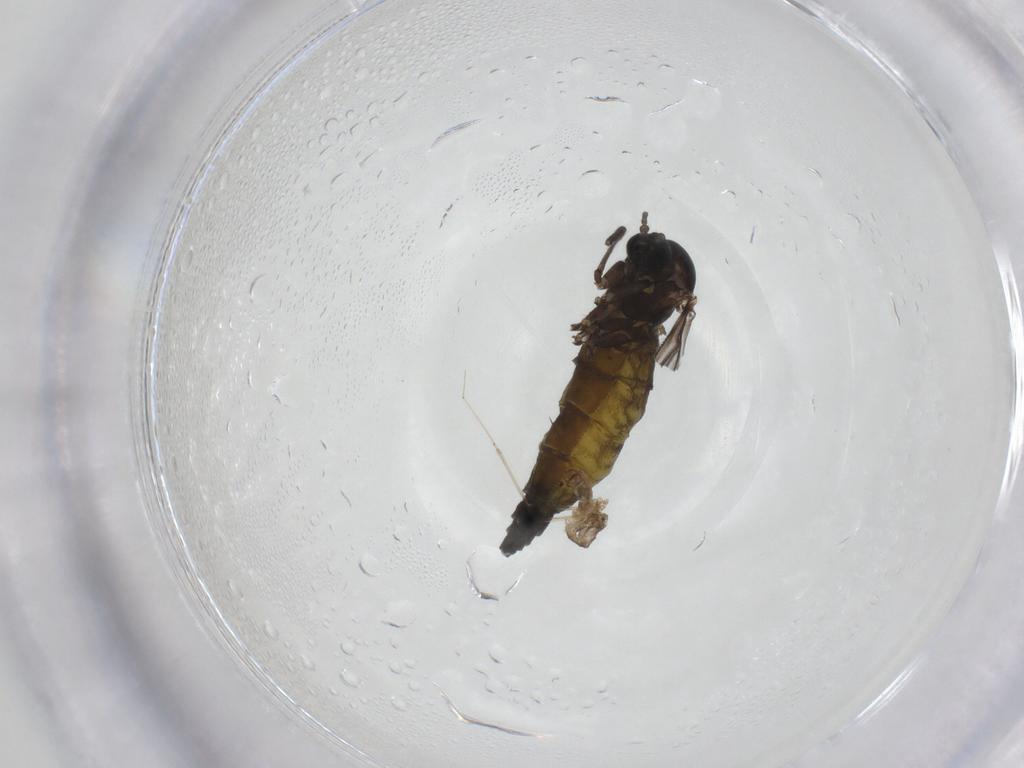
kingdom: Animalia
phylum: Arthropoda
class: Insecta
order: Diptera
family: Cecidomyiidae
